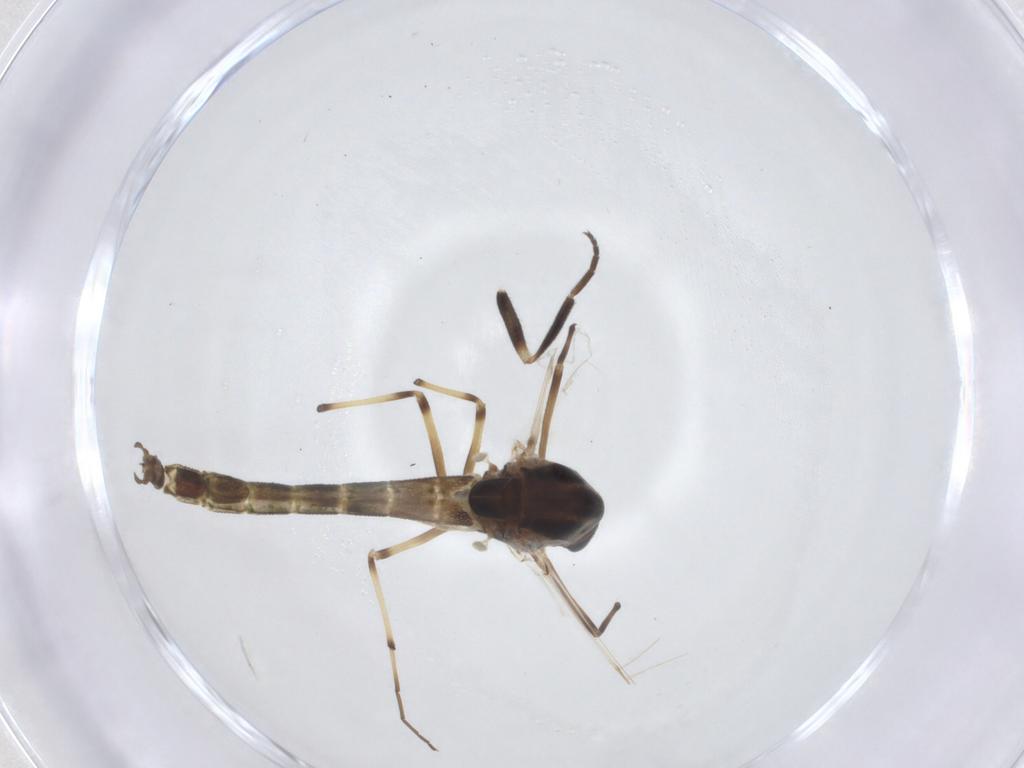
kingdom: Animalia
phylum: Arthropoda
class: Insecta
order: Diptera
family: Chironomidae
